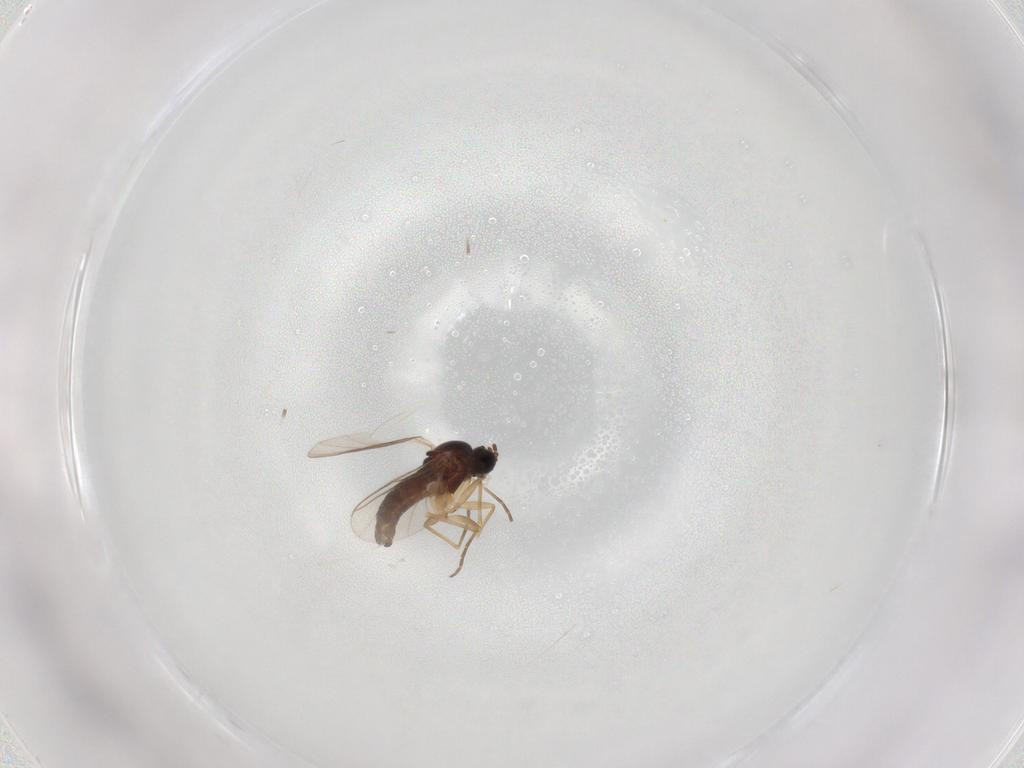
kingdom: Animalia
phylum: Arthropoda
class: Insecta
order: Diptera
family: Sciaridae
